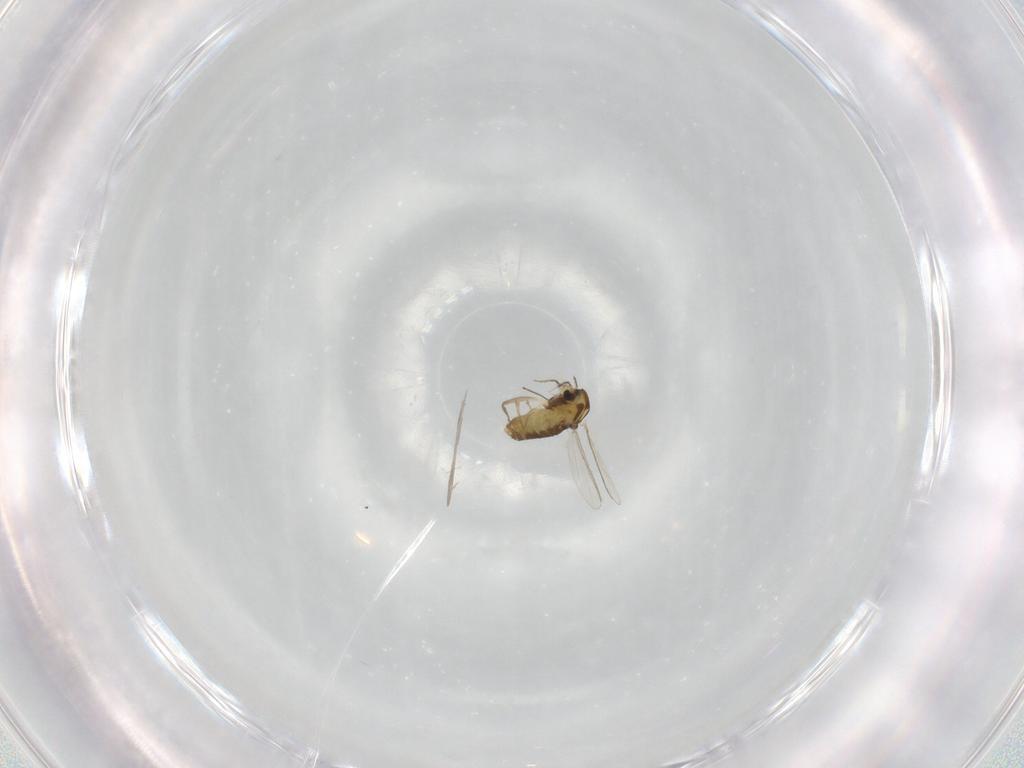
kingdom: Animalia
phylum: Arthropoda
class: Insecta
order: Diptera
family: Chironomidae
